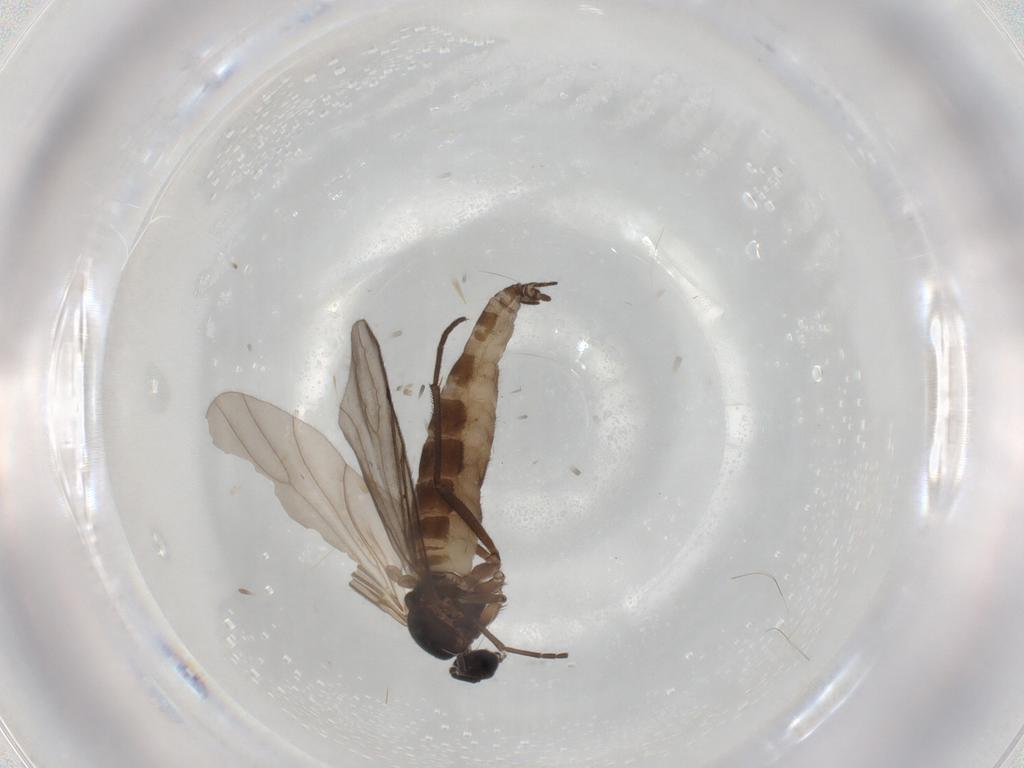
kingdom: Animalia
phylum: Arthropoda
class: Insecta
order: Diptera
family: Sciaridae
